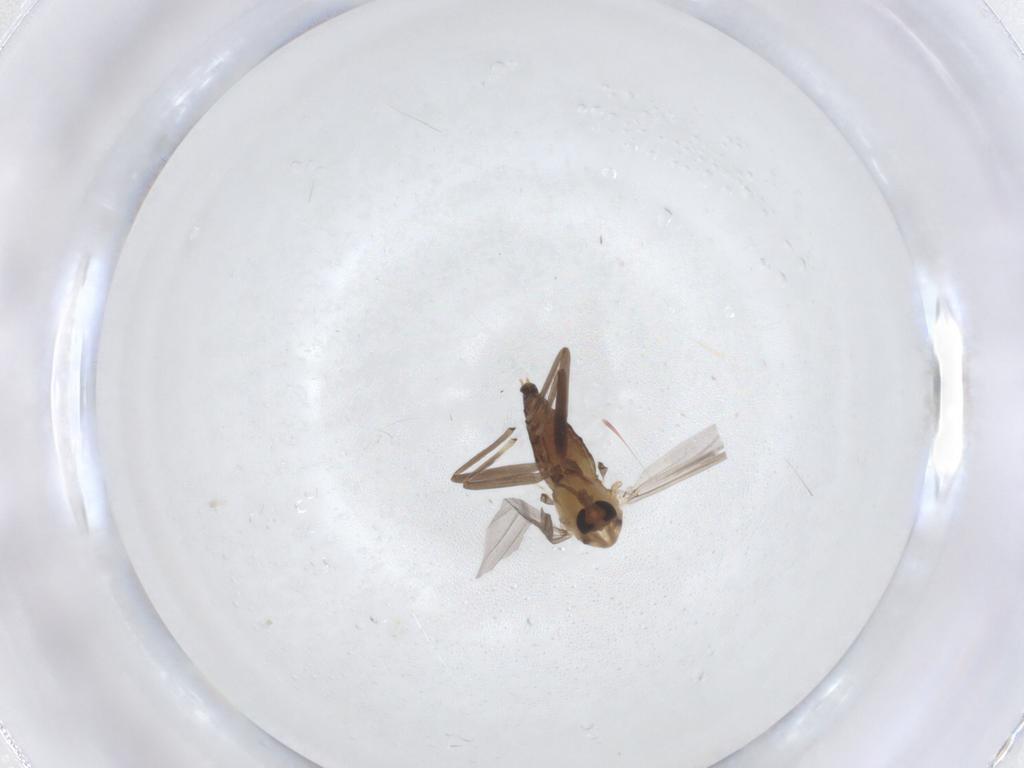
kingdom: Animalia
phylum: Arthropoda
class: Insecta
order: Diptera
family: Chironomidae
